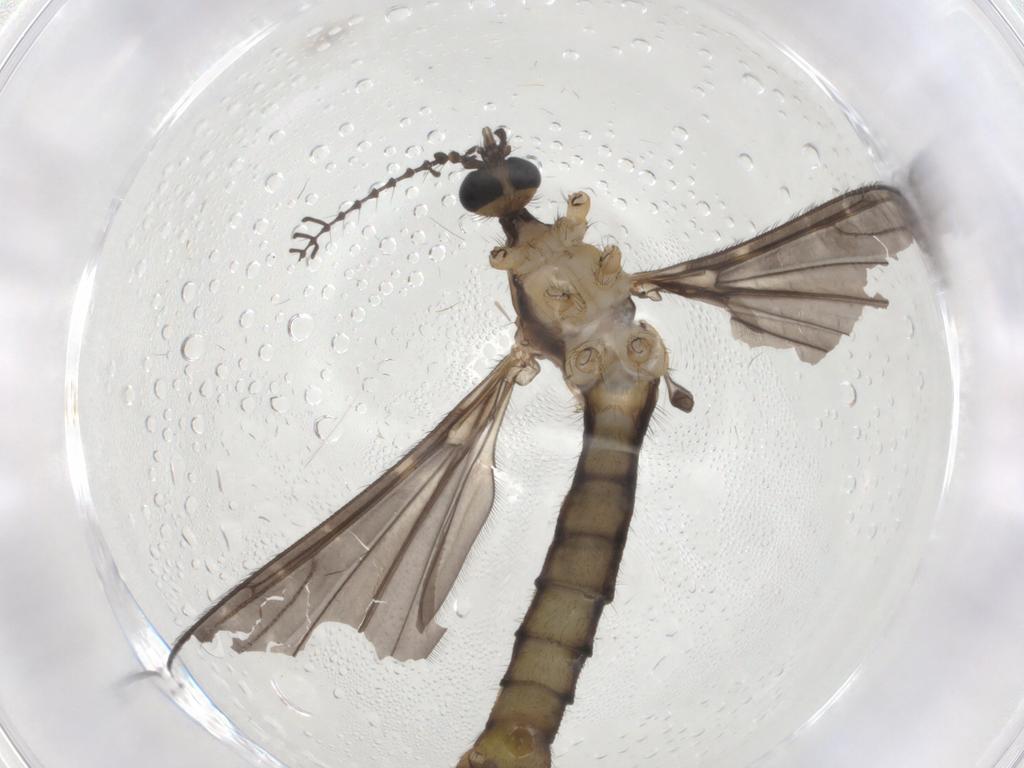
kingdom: Animalia
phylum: Arthropoda
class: Insecta
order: Diptera
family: Limoniidae
